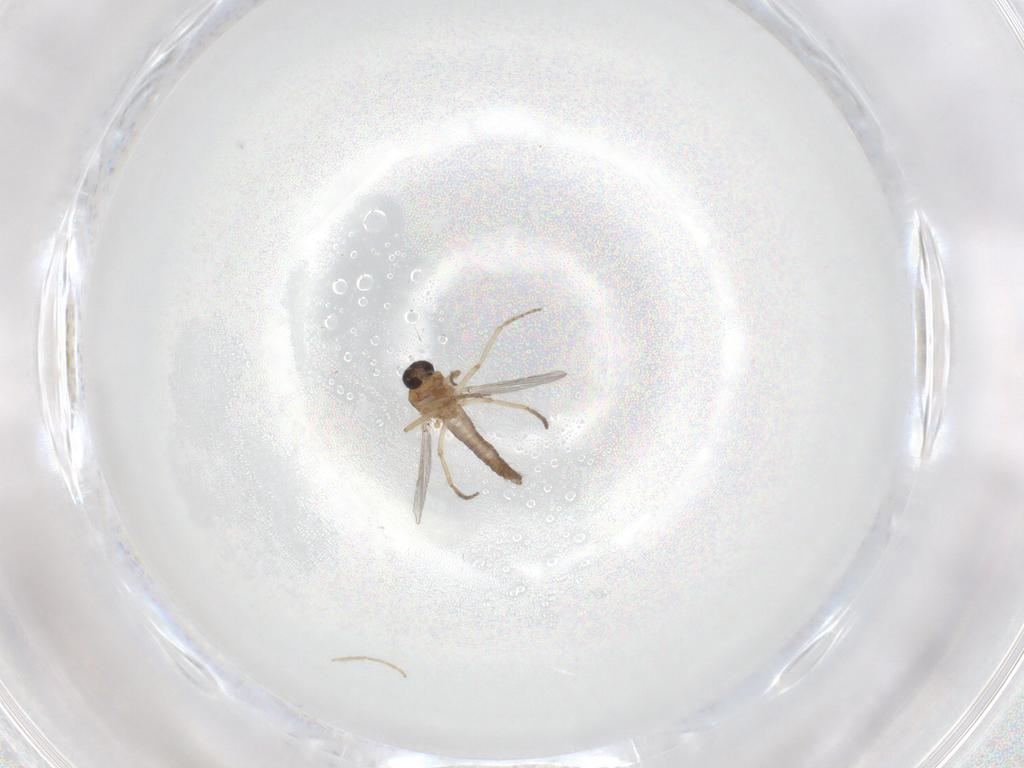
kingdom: Animalia
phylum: Arthropoda
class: Insecta
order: Diptera
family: Chironomidae
